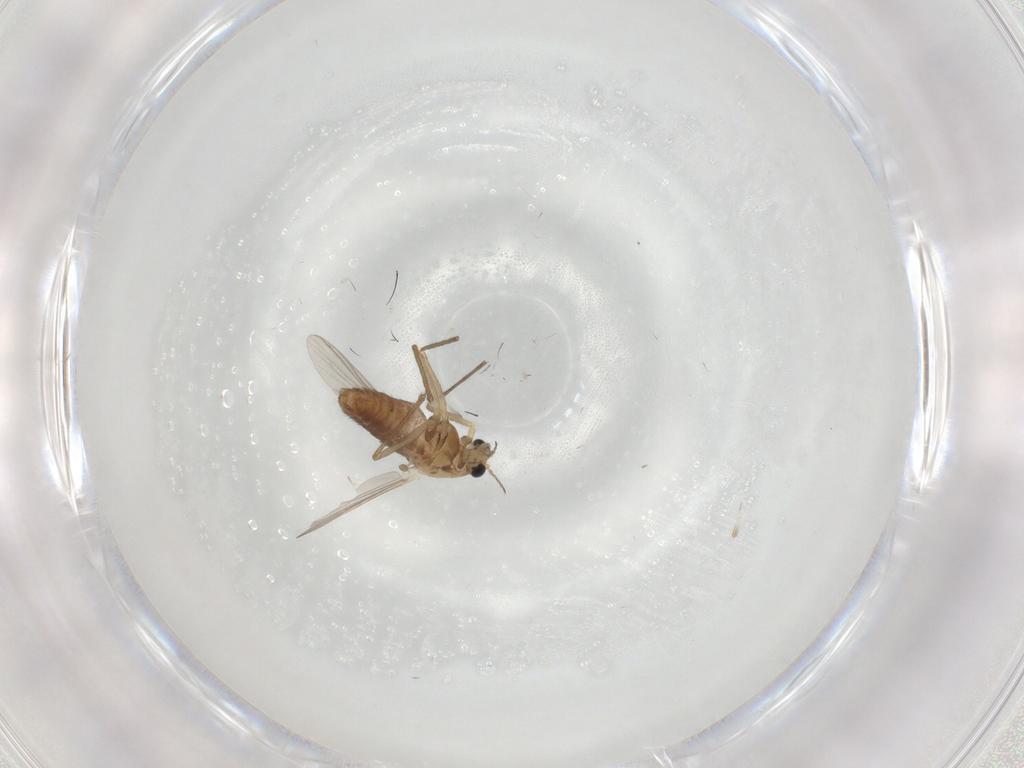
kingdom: Animalia
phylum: Arthropoda
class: Insecta
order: Diptera
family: Chironomidae
